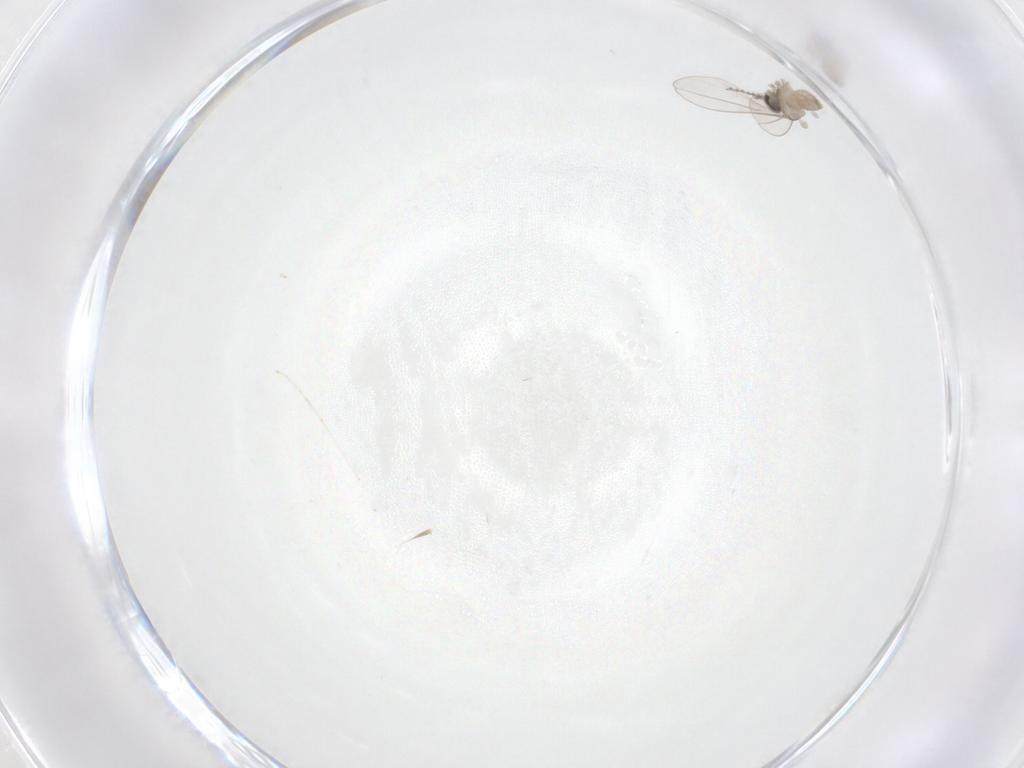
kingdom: Animalia
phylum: Arthropoda
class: Insecta
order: Diptera
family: Cecidomyiidae
